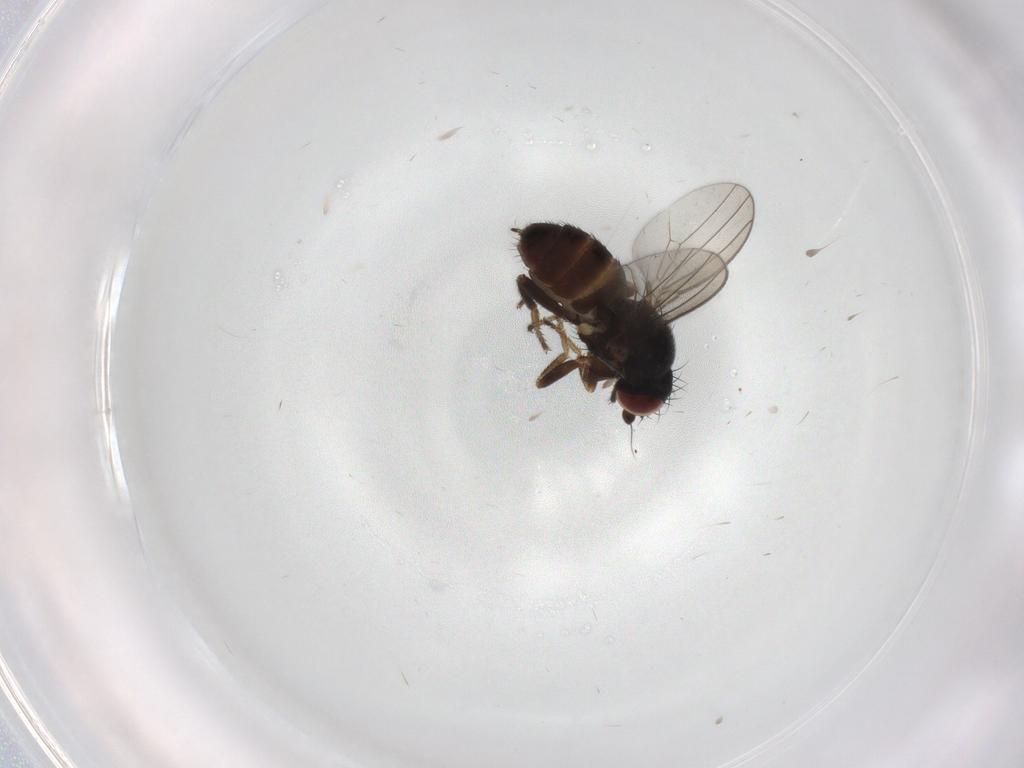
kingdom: Animalia
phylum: Arthropoda
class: Insecta
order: Diptera
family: Milichiidae
